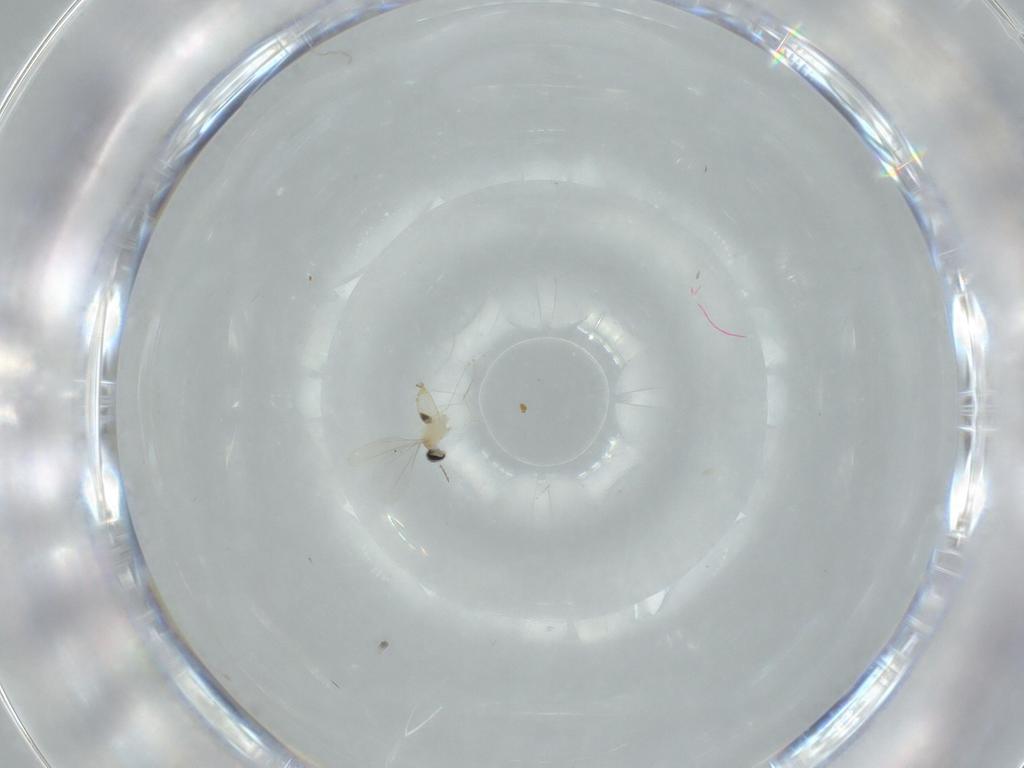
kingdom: Animalia
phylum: Arthropoda
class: Insecta
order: Diptera
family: Cecidomyiidae
